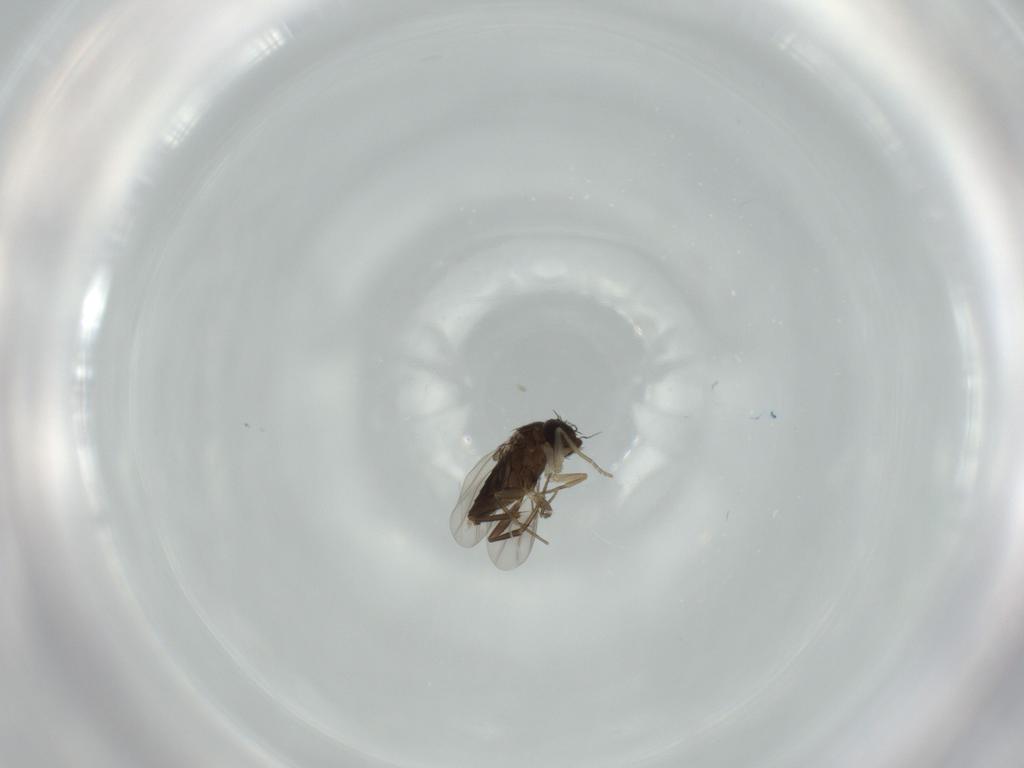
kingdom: Animalia
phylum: Arthropoda
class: Insecta
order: Diptera
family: Phoridae
